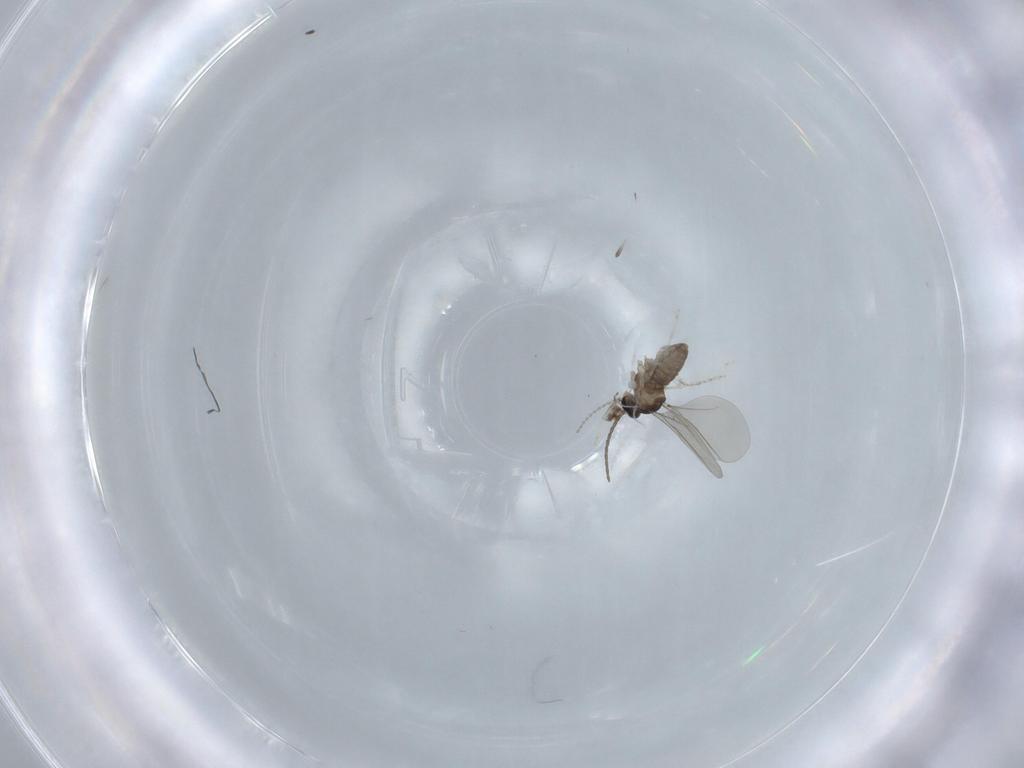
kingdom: Animalia
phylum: Arthropoda
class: Insecta
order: Diptera
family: Cecidomyiidae
